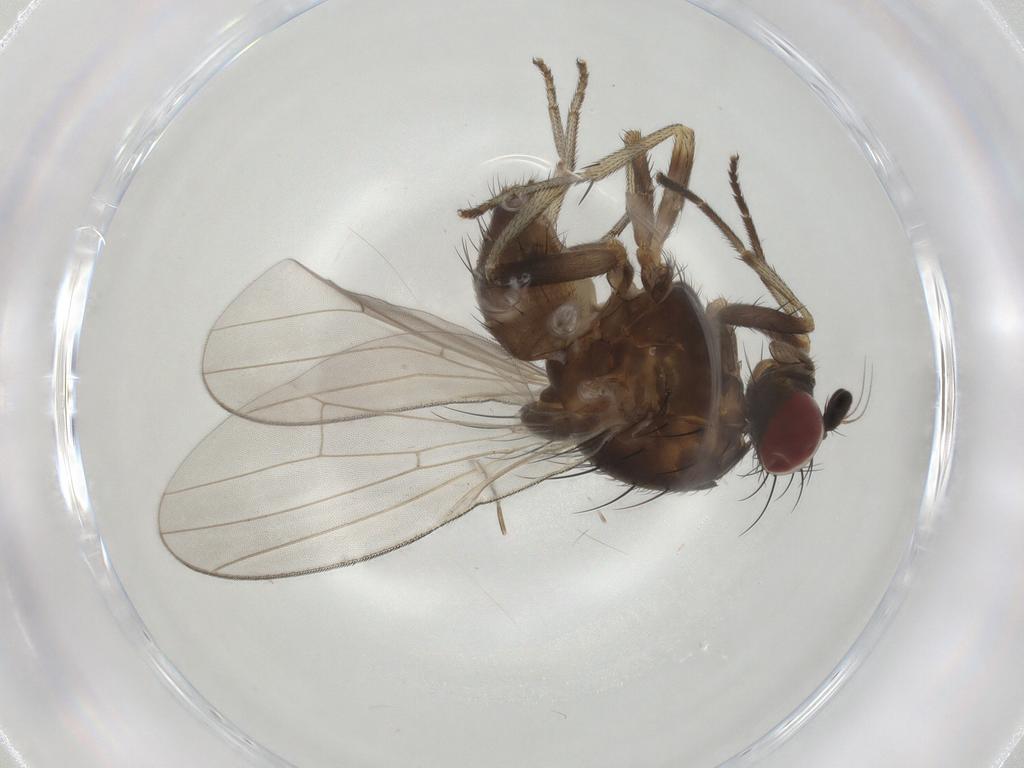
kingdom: Animalia
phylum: Arthropoda
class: Insecta
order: Diptera
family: Lauxaniidae
